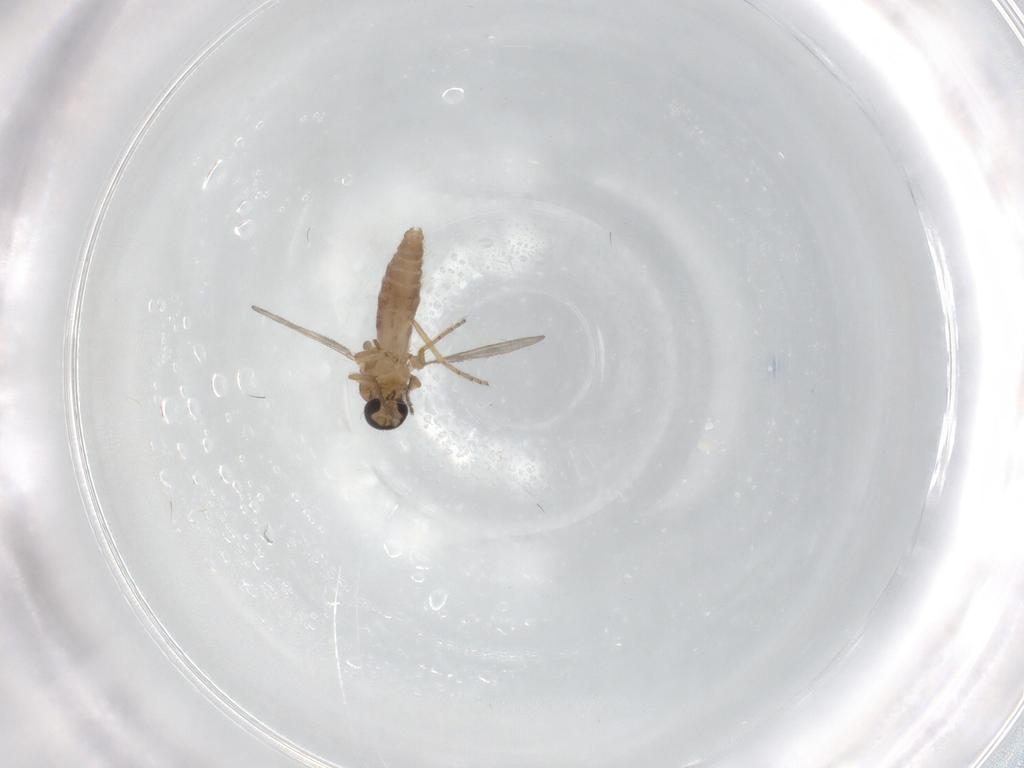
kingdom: Animalia
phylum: Arthropoda
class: Insecta
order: Diptera
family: Ceratopogonidae
